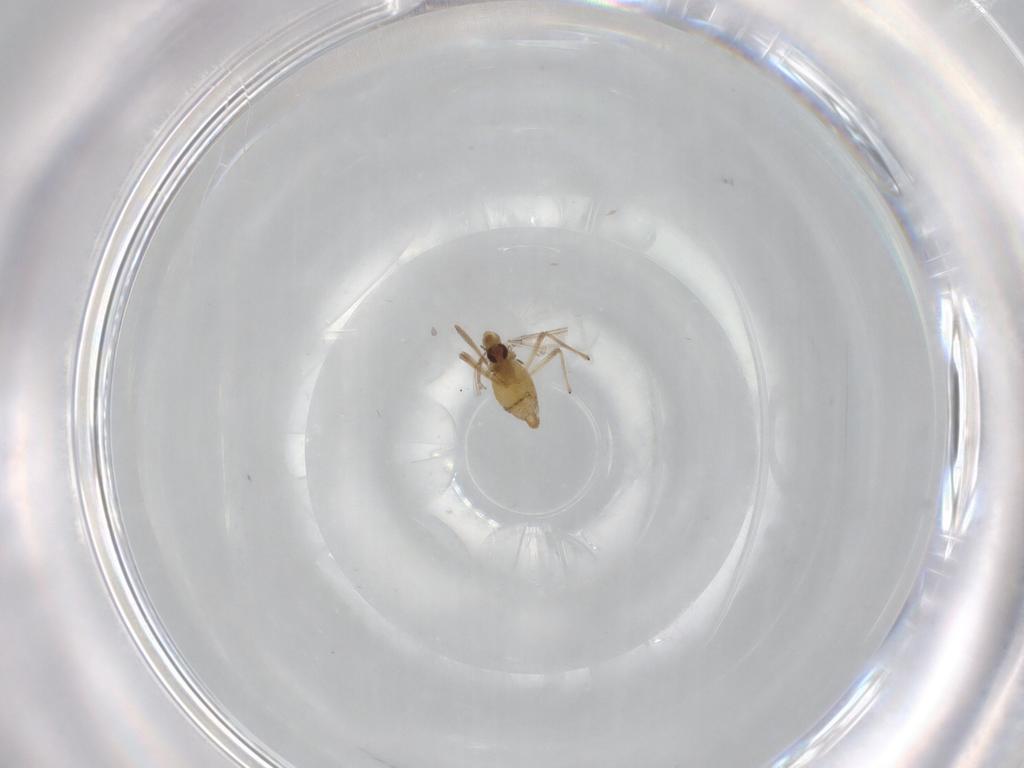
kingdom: Animalia
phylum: Arthropoda
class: Insecta
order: Diptera
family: Chironomidae
